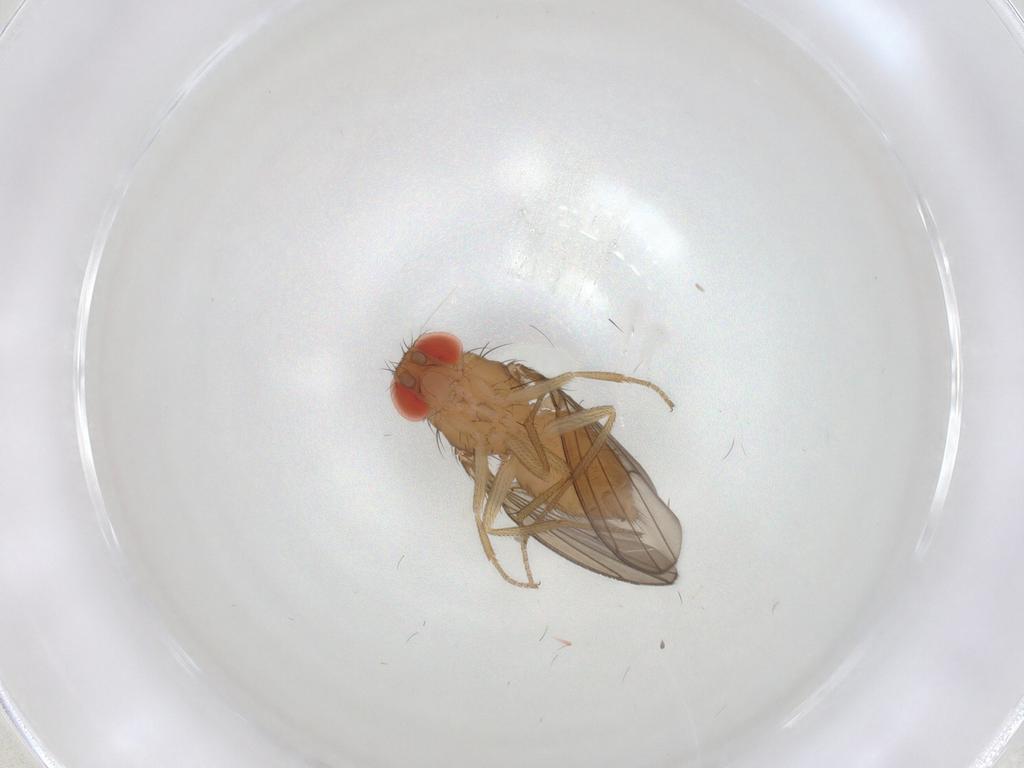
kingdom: Animalia
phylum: Arthropoda
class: Insecta
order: Diptera
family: Drosophilidae
